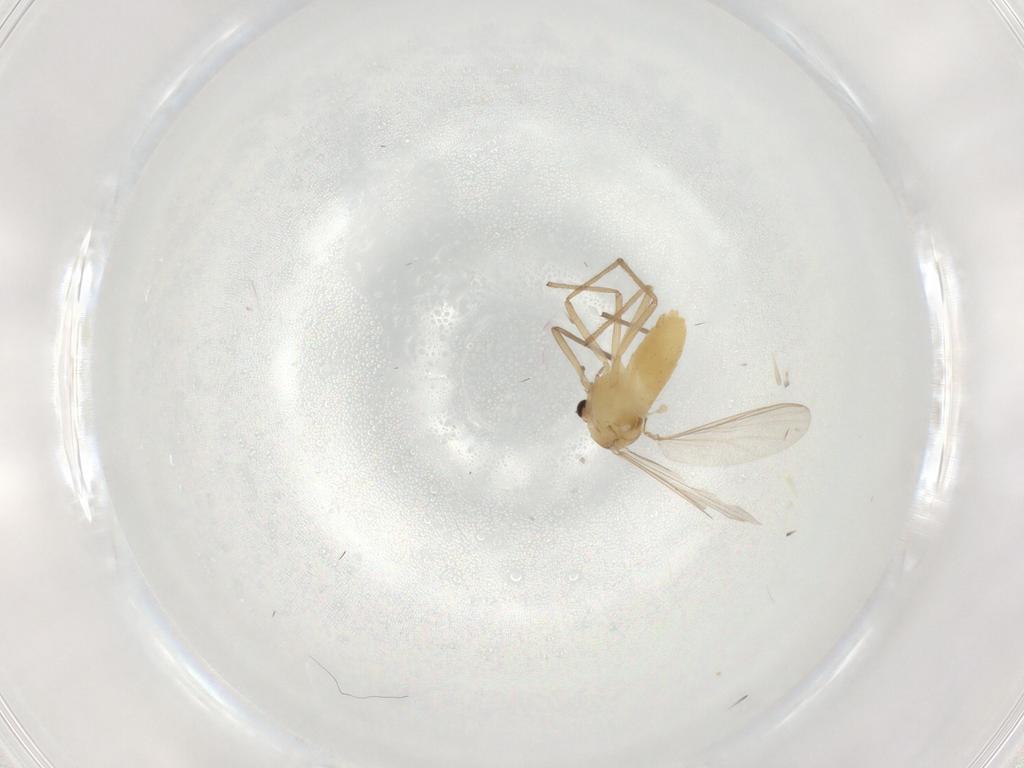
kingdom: Animalia
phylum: Arthropoda
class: Insecta
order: Diptera
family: Chironomidae
